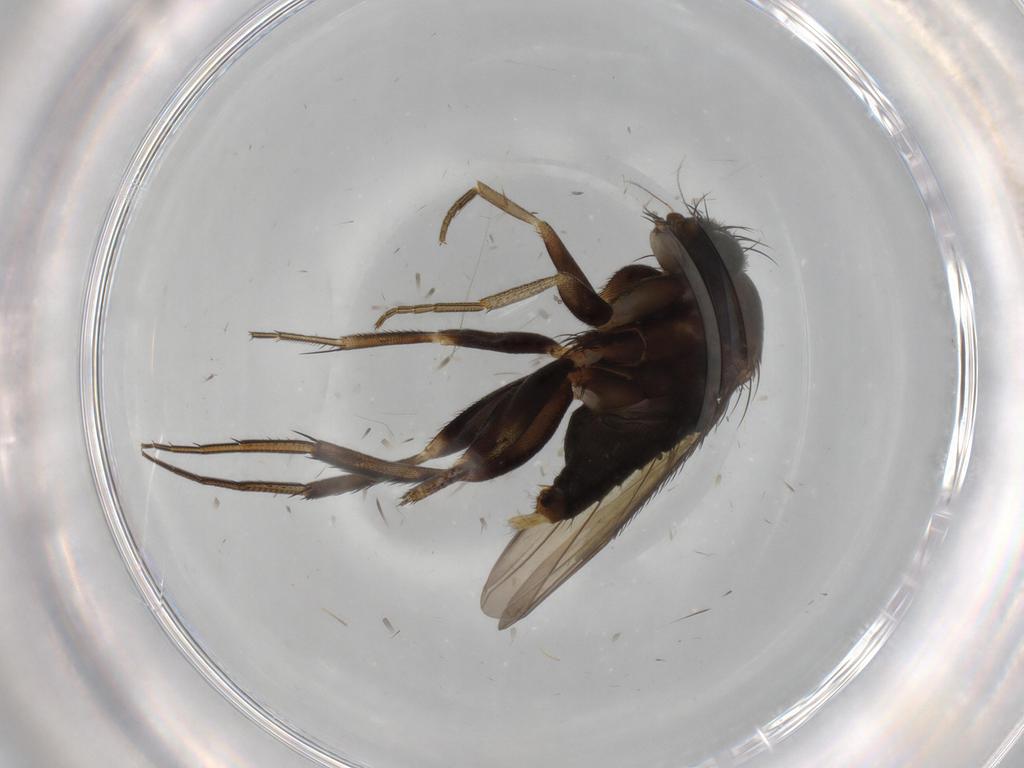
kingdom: Animalia
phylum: Arthropoda
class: Insecta
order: Diptera
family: Phoridae
